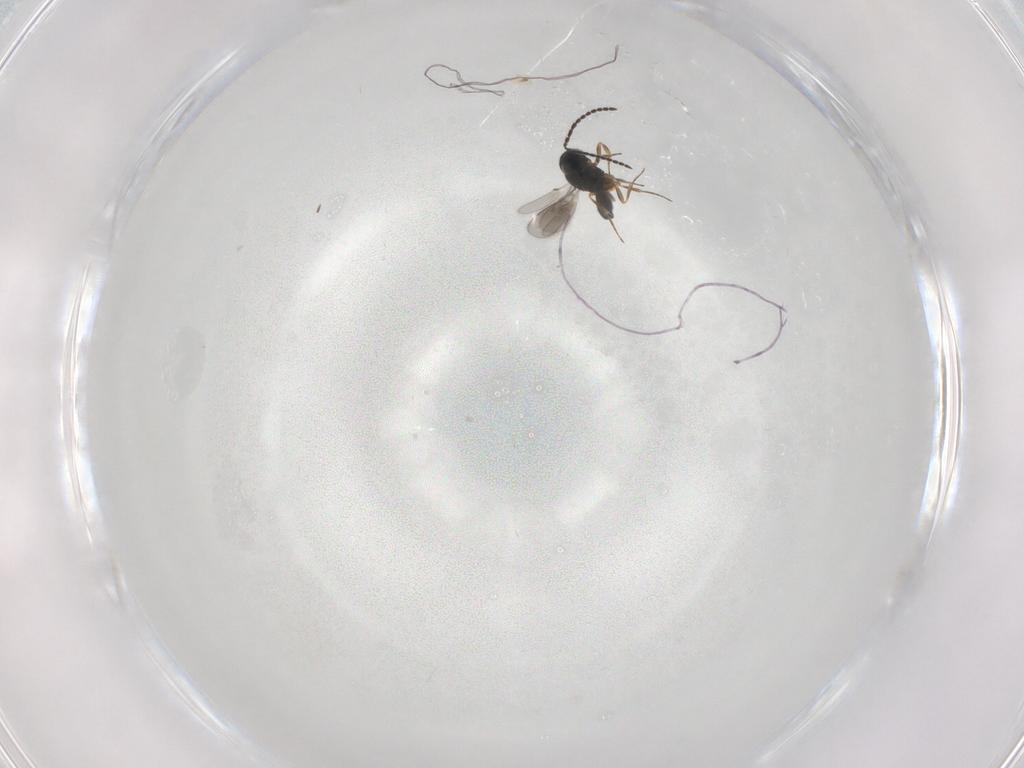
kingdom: Animalia
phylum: Arthropoda
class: Insecta
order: Hymenoptera
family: Scelionidae
